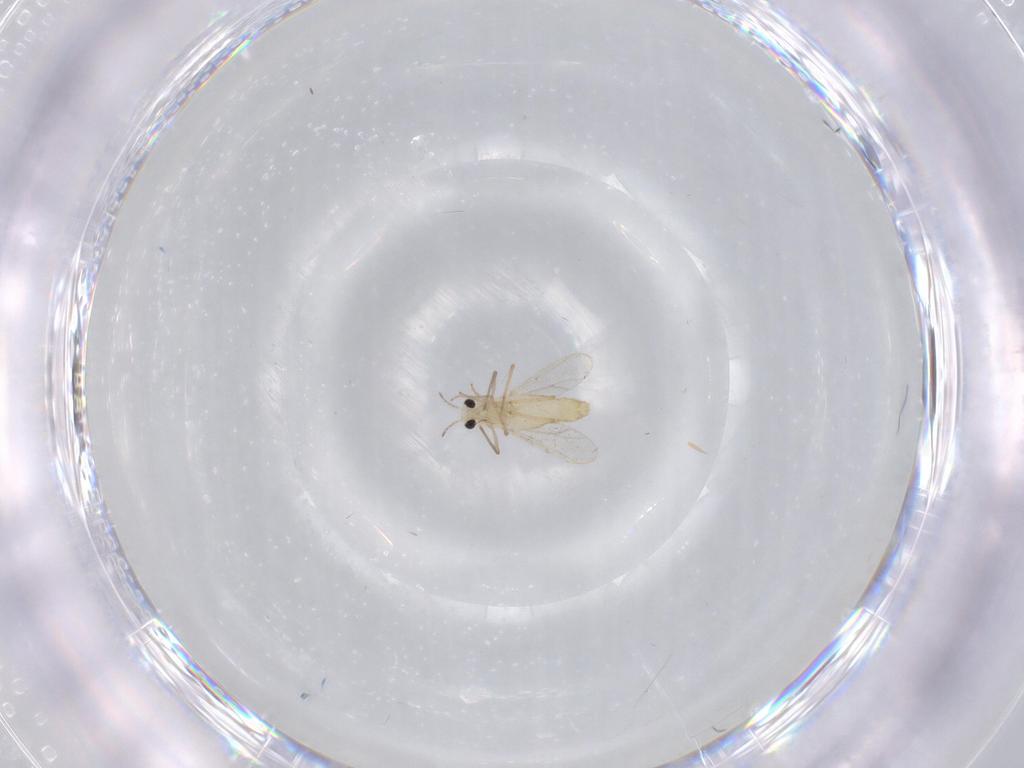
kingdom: Animalia
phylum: Arthropoda
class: Insecta
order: Diptera
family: Chironomidae
